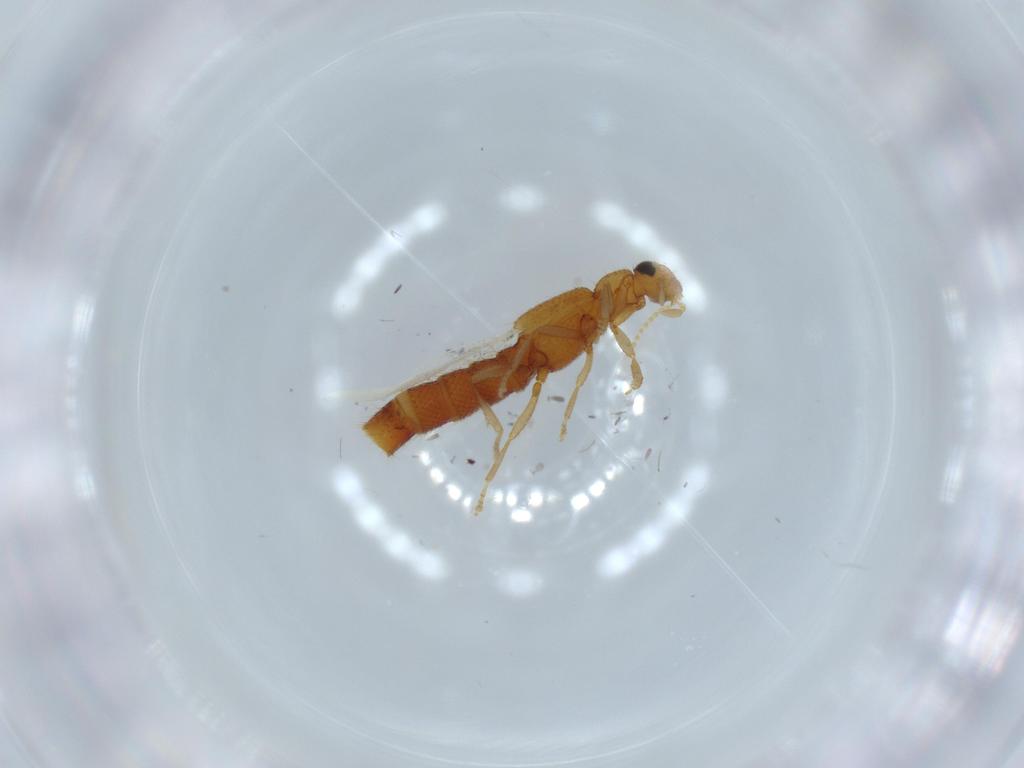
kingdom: Animalia
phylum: Arthropoda
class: Insecta
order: Coleoptera
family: Staphylinidae
